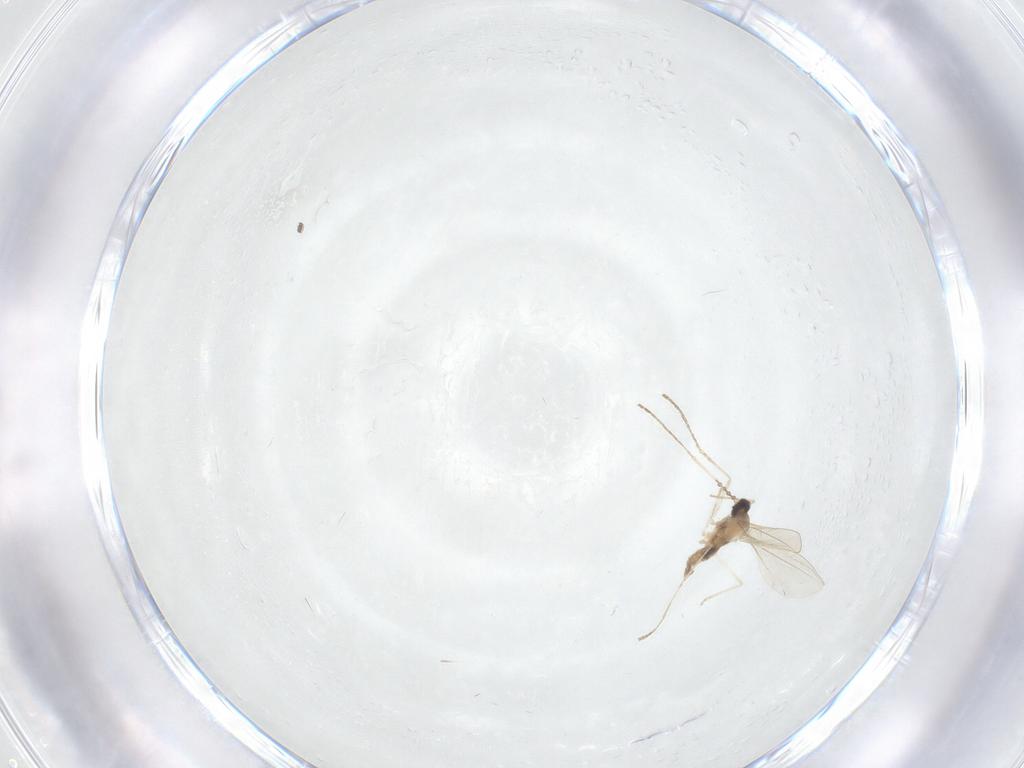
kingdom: Animalia
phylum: Arthropoda
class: Insecta
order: Diptera
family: Cecidomyiidae
